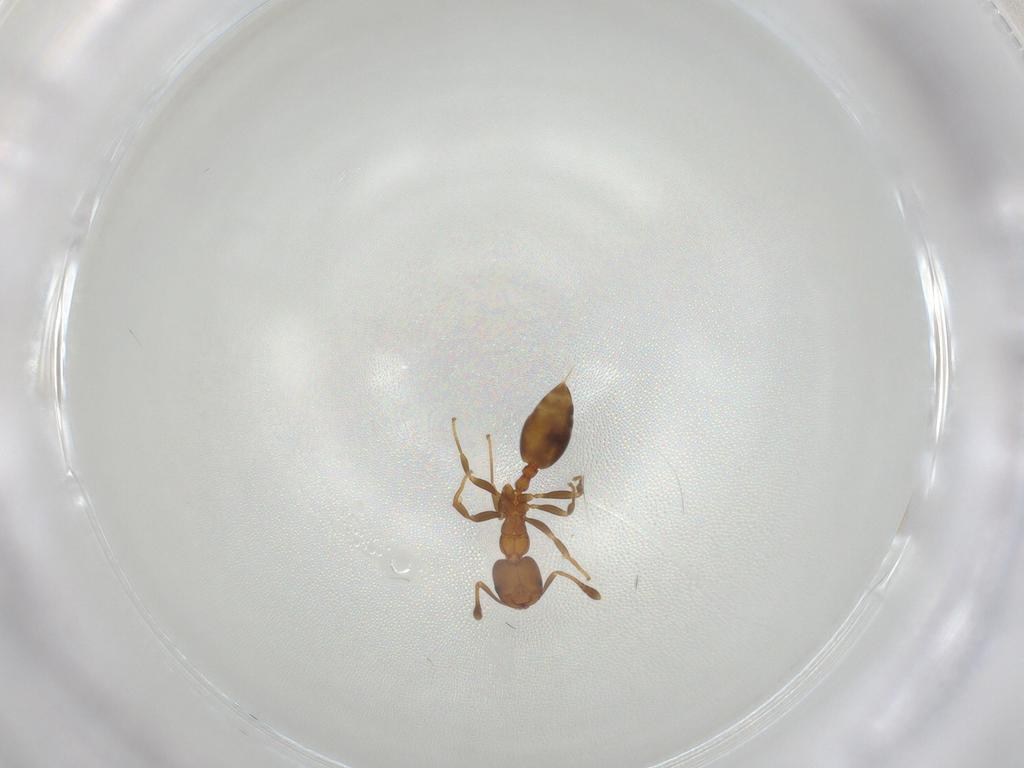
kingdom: Animalia
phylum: Arthropoda
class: Insecta
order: Hymenoptera
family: Formicidae
